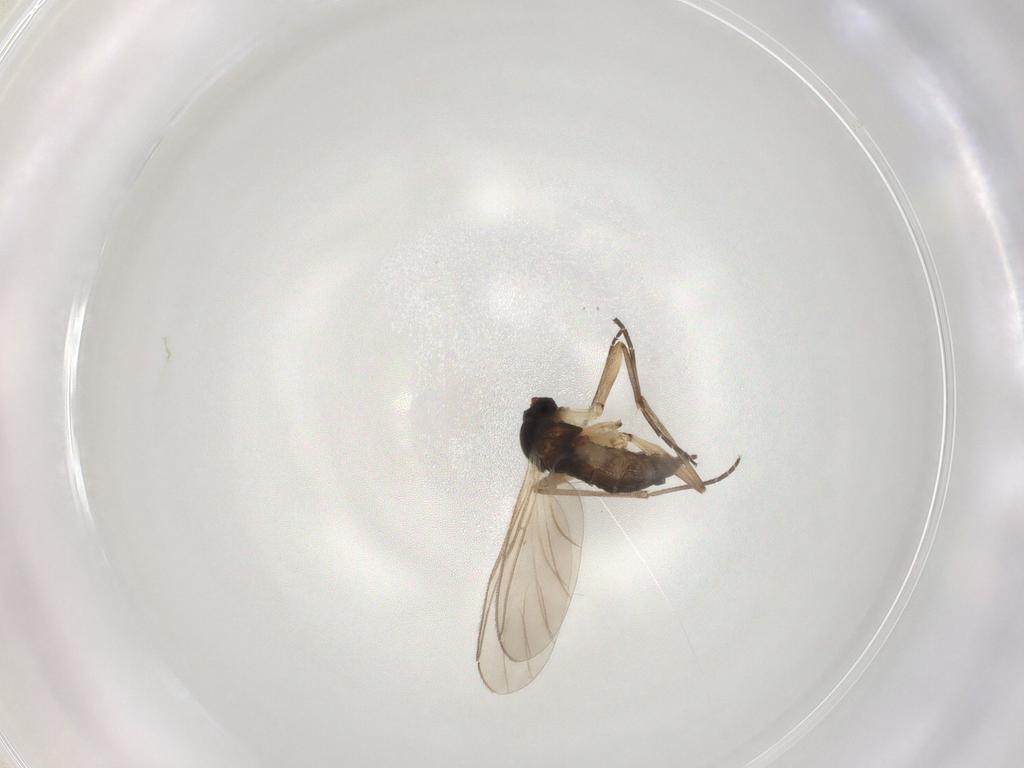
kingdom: Animalia
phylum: Arthropoda
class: Insecta
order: Diptera
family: Sciaridae
